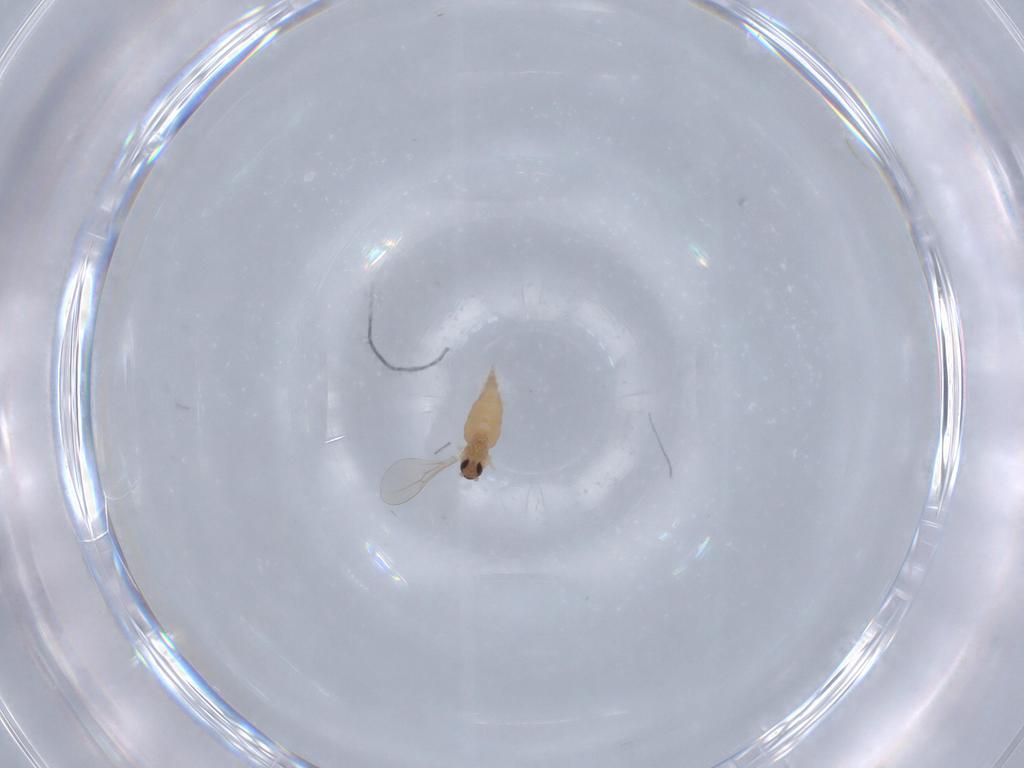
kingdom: Animalia
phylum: Arthropoda
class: Insecta
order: Diptera
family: Cecidomyiidae
